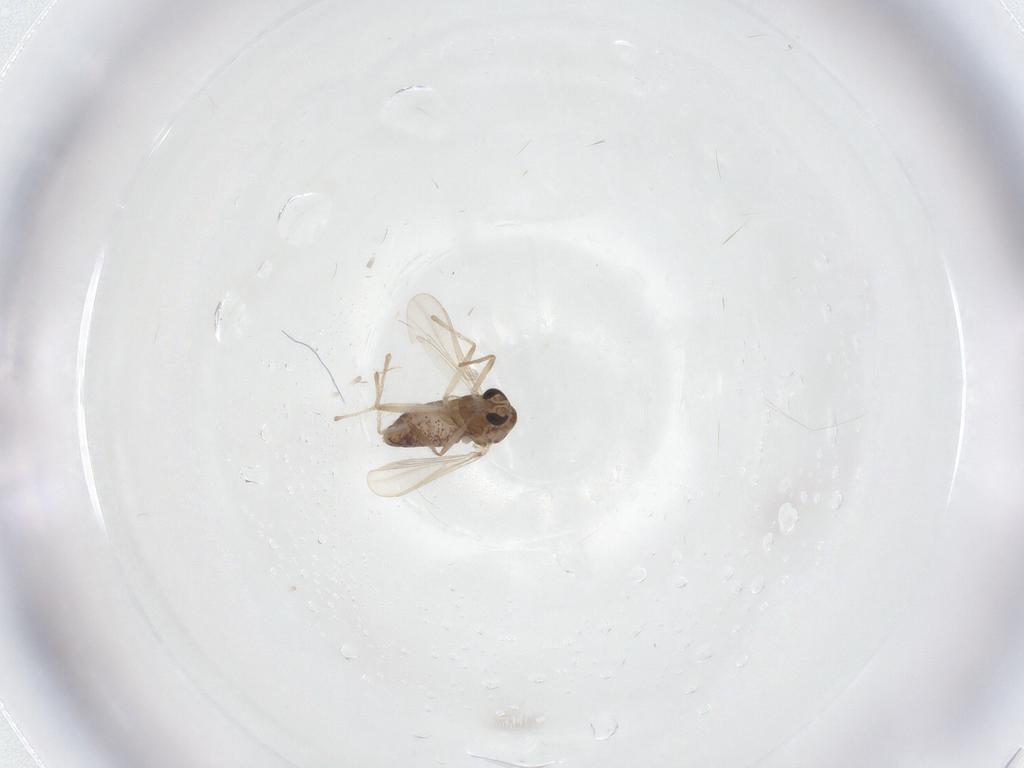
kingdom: Animalia
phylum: Arthropoda
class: Insecta
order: Diptera
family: Chironomidae
